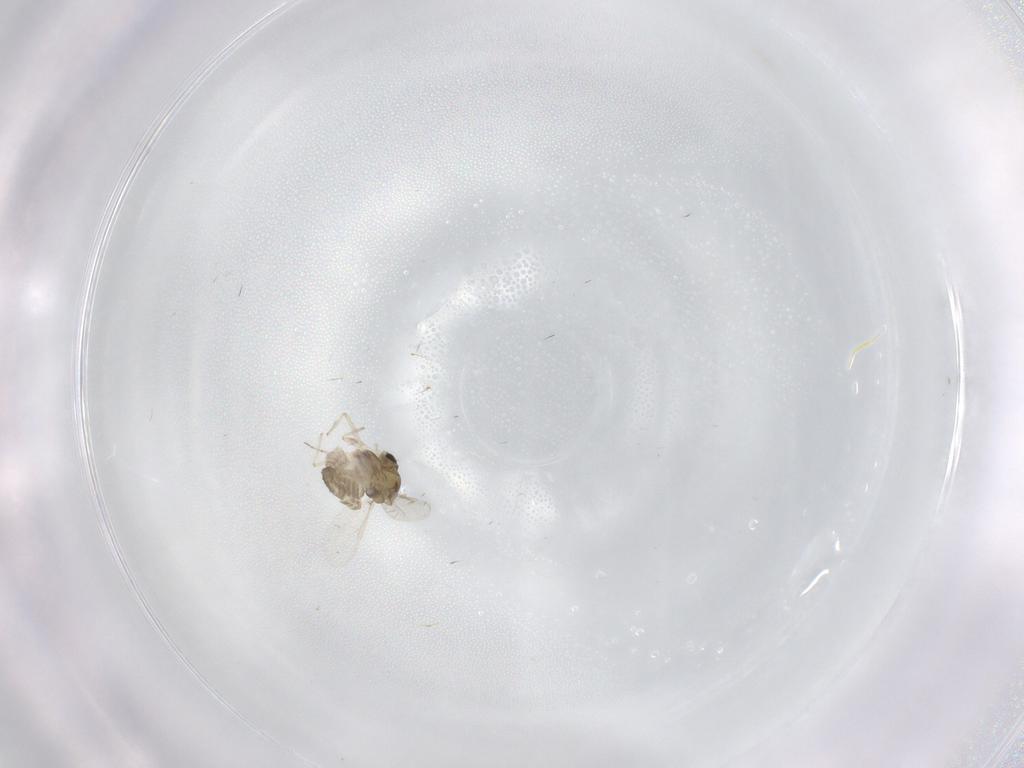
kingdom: Animalia
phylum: Arthropoda
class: Insecta
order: Diptera
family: Chironomidae
